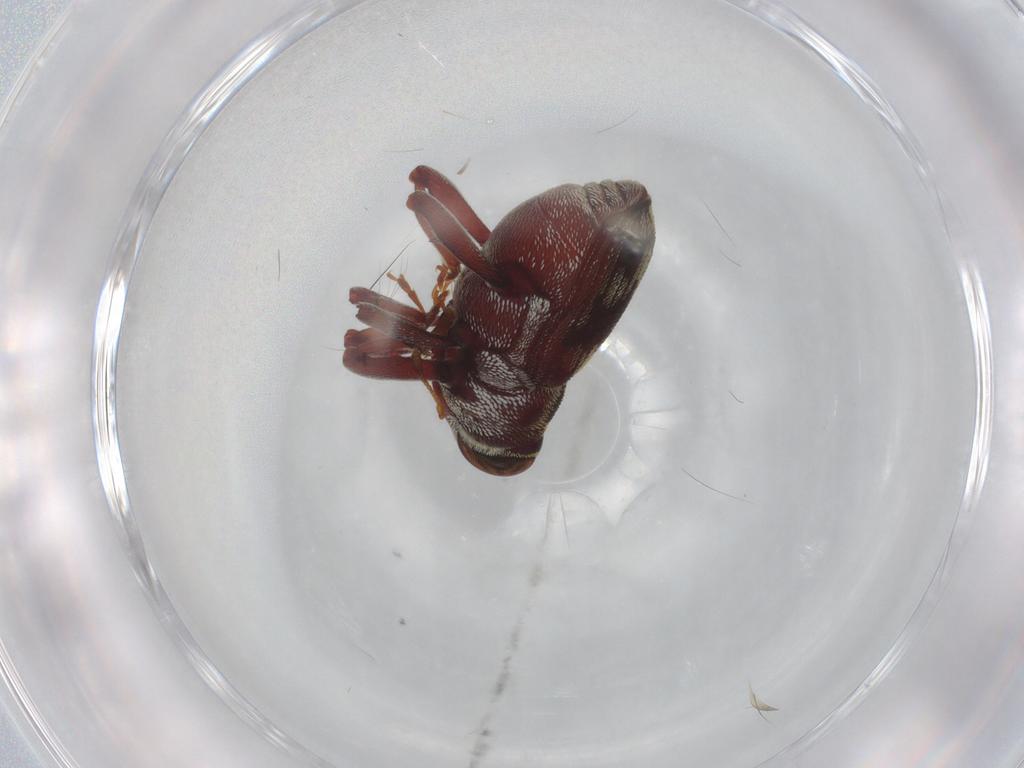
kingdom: Animalia
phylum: Arthropoda
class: Insecta
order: Coleoptera
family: Curculionidae
